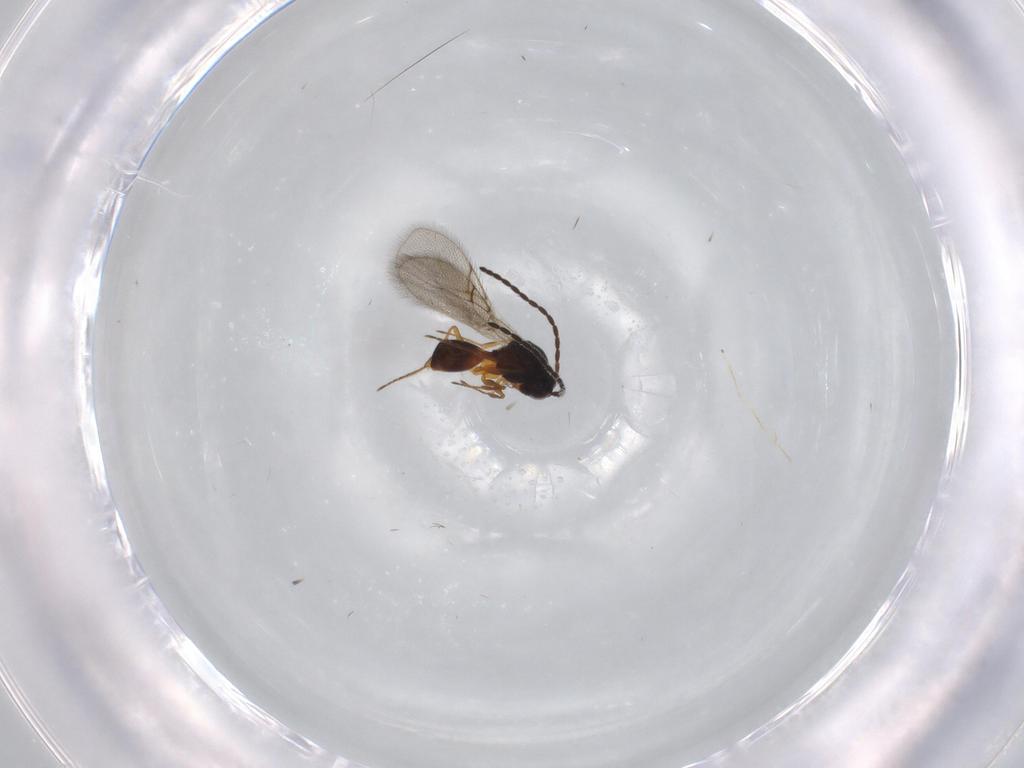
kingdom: Animalia
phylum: Arthropoda
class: Insecta
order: Hymenoptera
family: Figitidae
